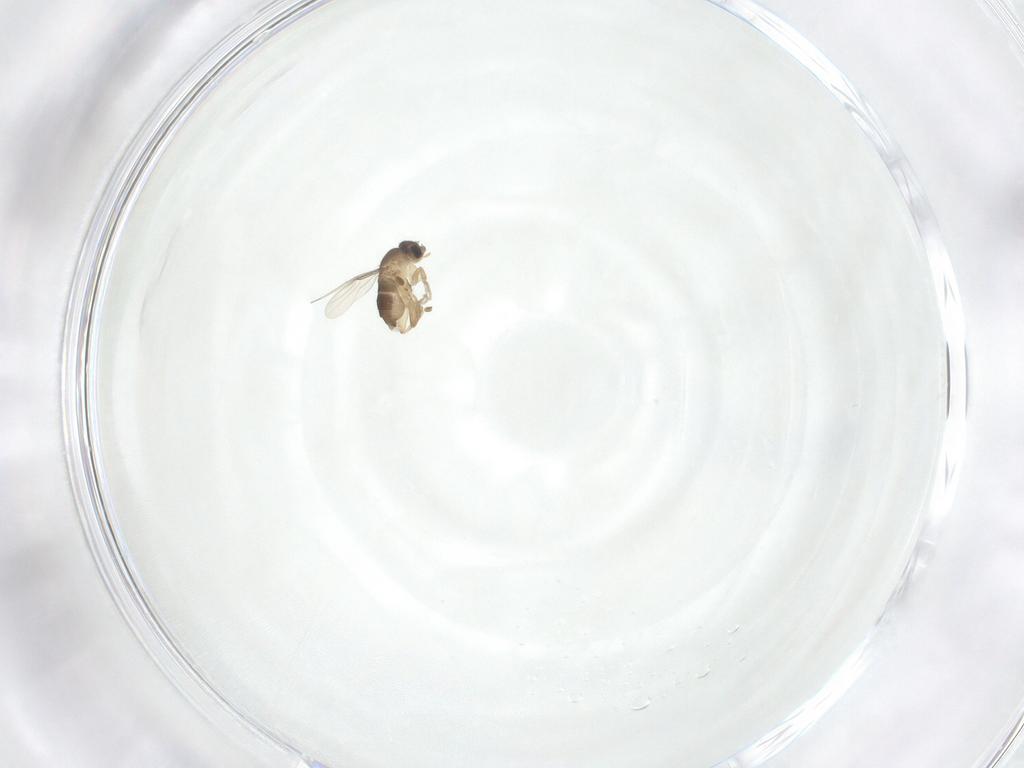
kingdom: Animalia
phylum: Arthropoda
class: Insecta
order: Diptera
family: Phoridae
